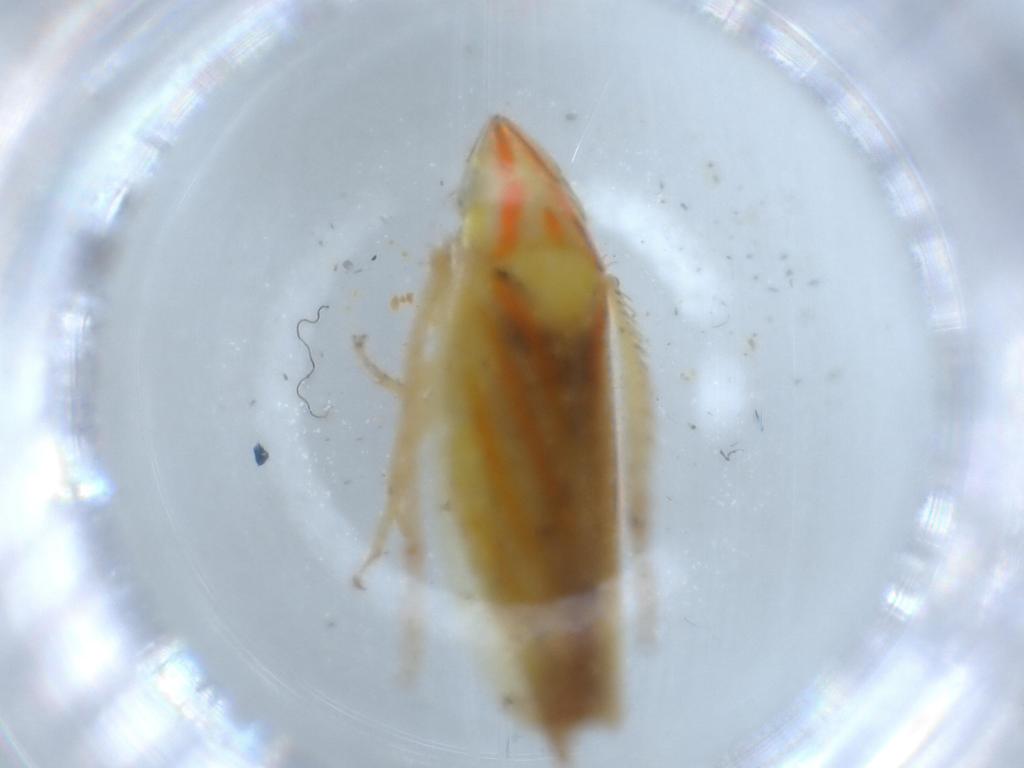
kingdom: Animalia
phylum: Arthropoda
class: Insecta
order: Hemiptera
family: Cicadellidae
